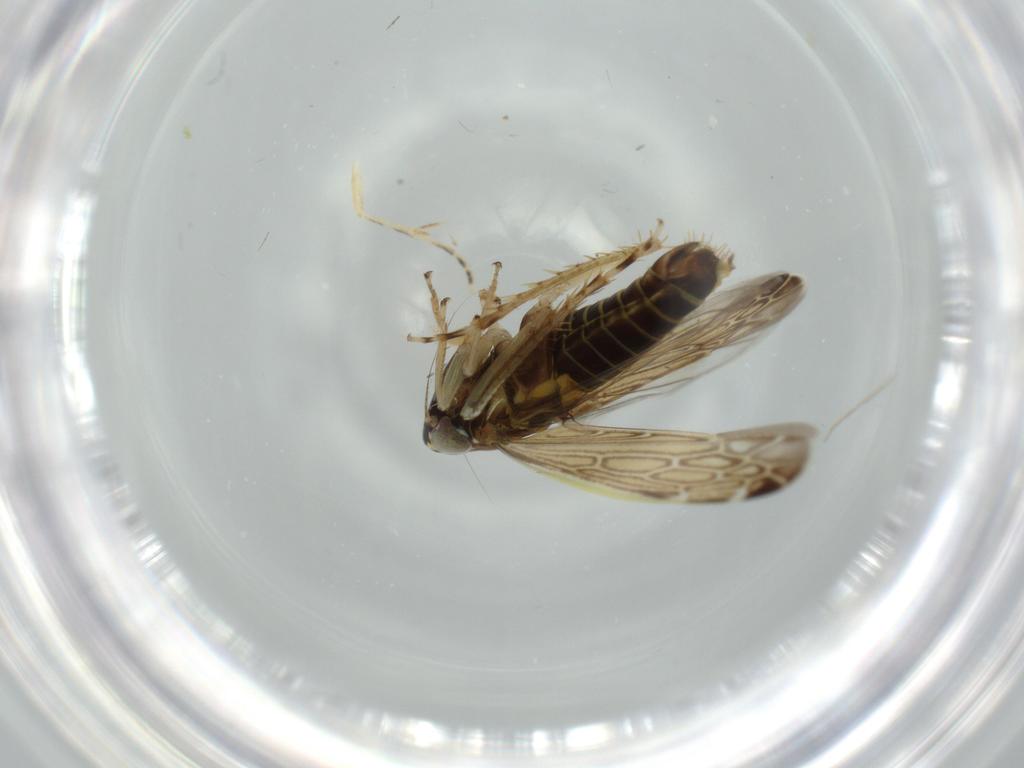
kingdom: Animalia
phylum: Arthropoda
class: Insecta
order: Hemiptera
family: Cicadellidae
